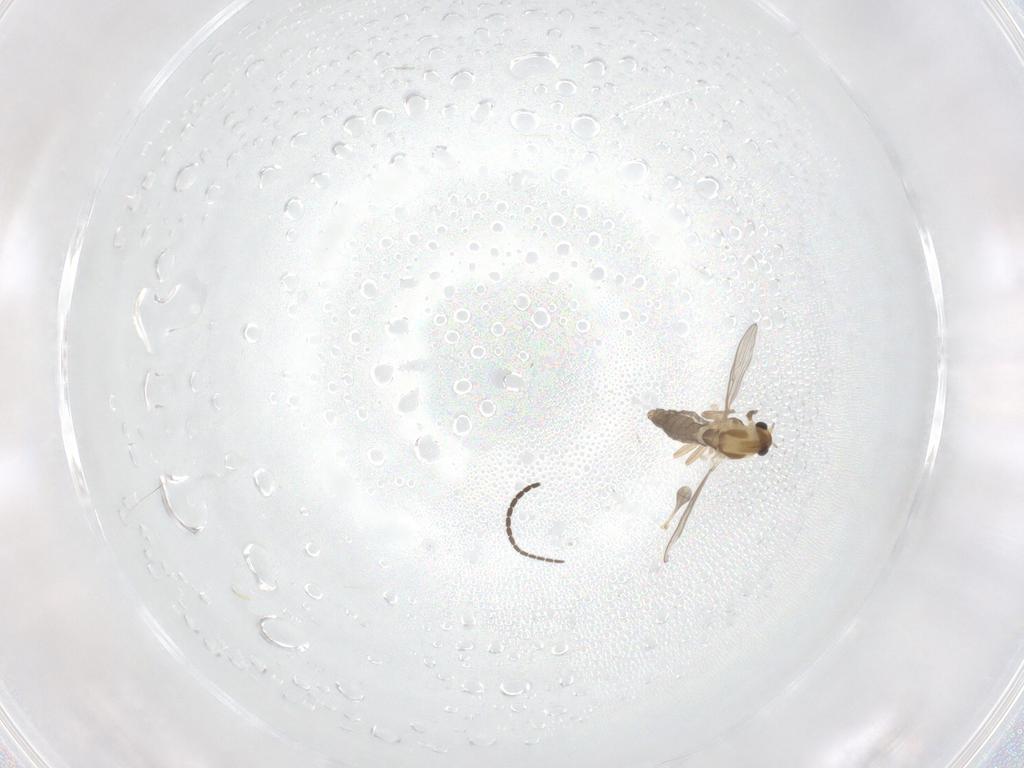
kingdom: Animalia
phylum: Arthropoda
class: Insecta
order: Diptera
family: Chironomidae
